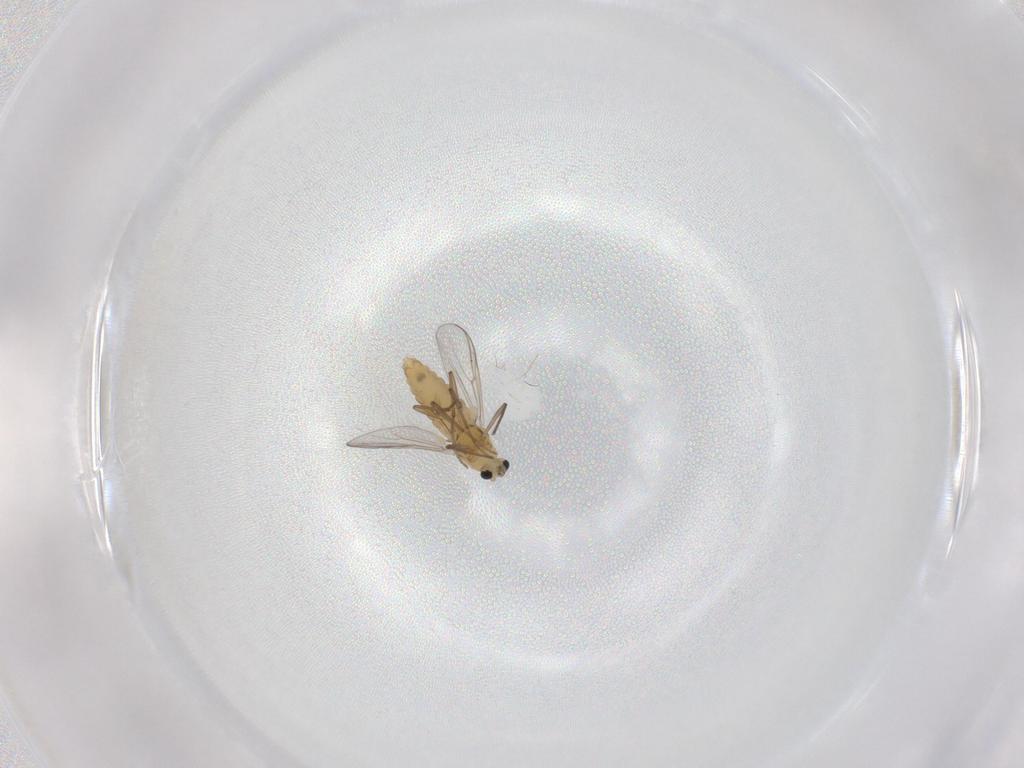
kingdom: Animalia
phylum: Arthropoda
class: Insecta
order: Diptera
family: Chironomidae
